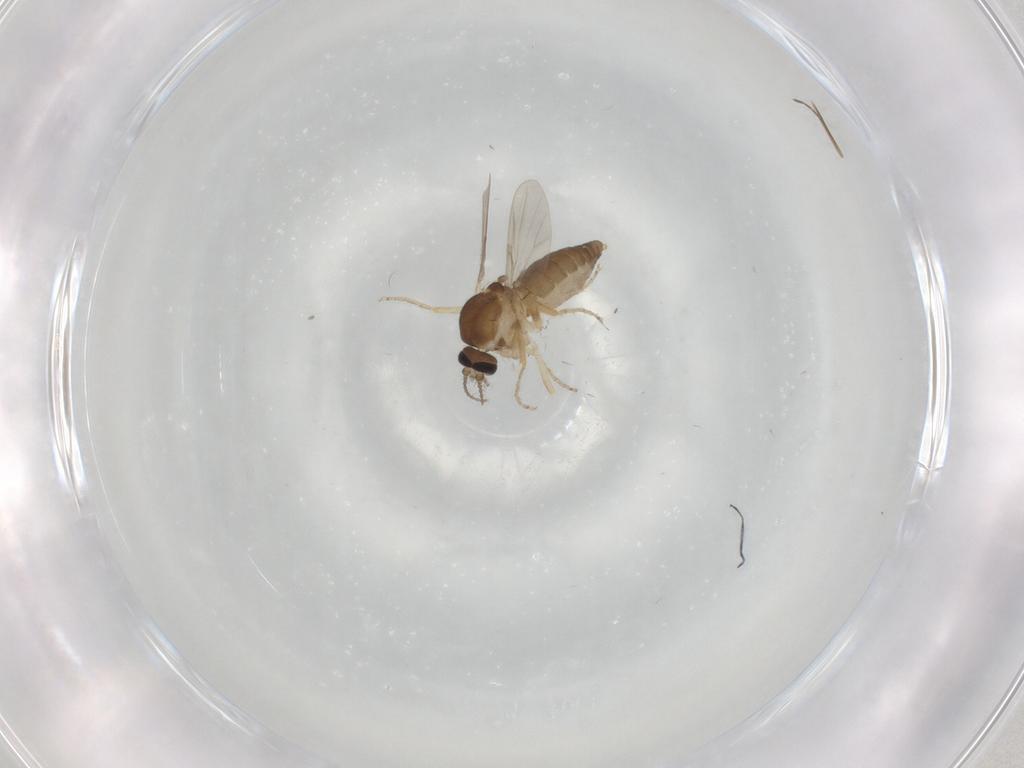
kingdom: Animalia
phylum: Arthropoda
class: Insecta
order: Diptera
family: Ceratopogonidae
